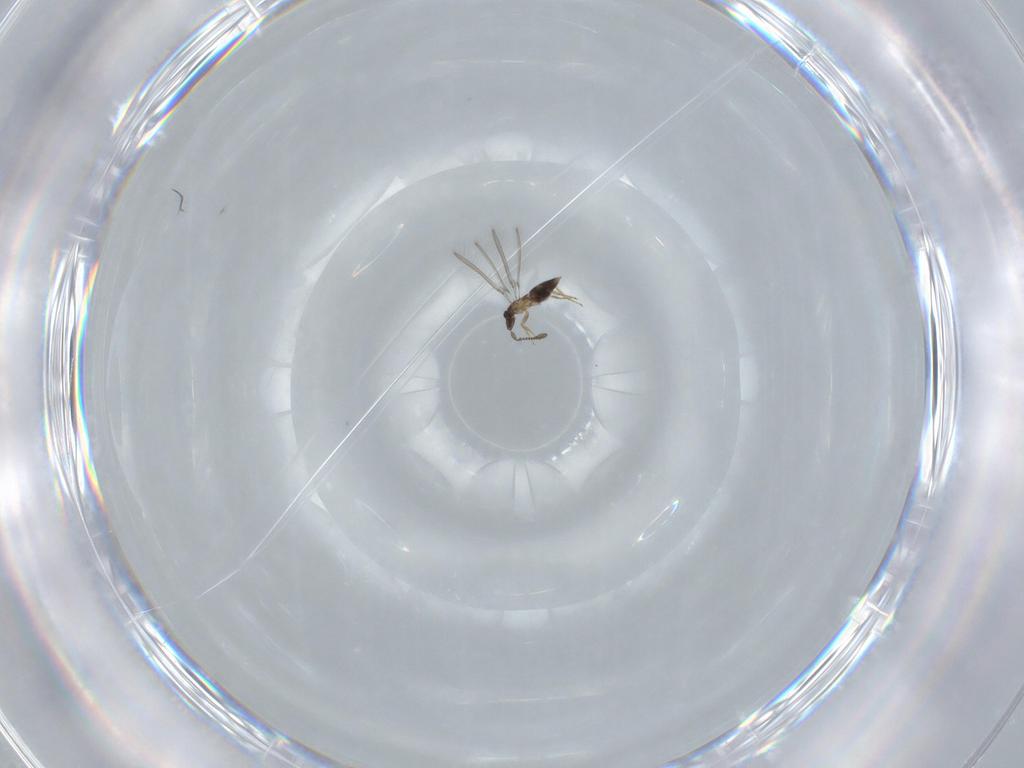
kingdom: Animalia
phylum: Arthropoda
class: Insecta
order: Hymenoptera
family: Mymaridae
